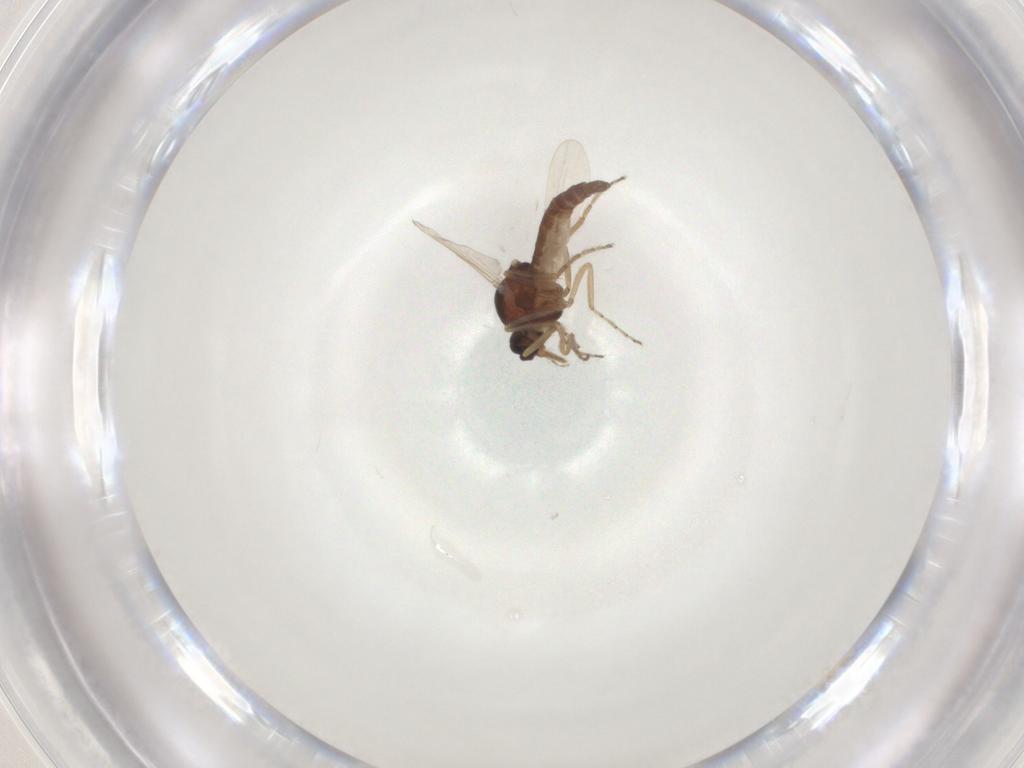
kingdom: Animalia
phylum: Arthropoda
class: Insecta
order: Diptera
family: Ceratopogonidae
